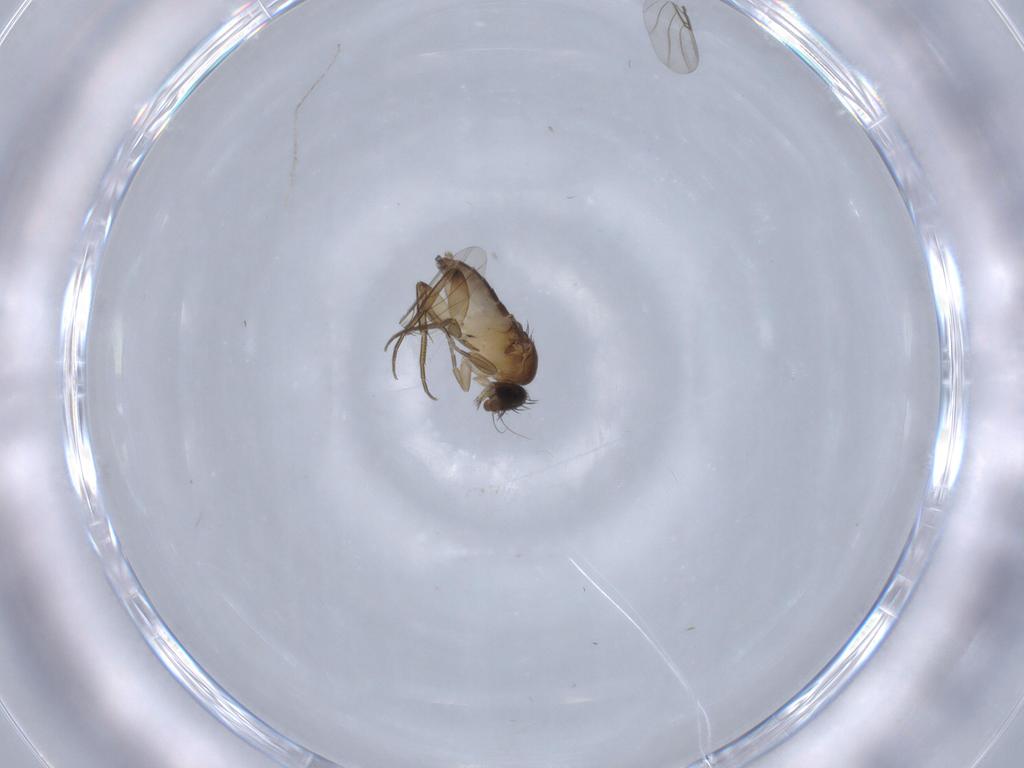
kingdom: Animalia
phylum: Arthropoda
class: Insecta
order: Diptera
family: Phoridae
